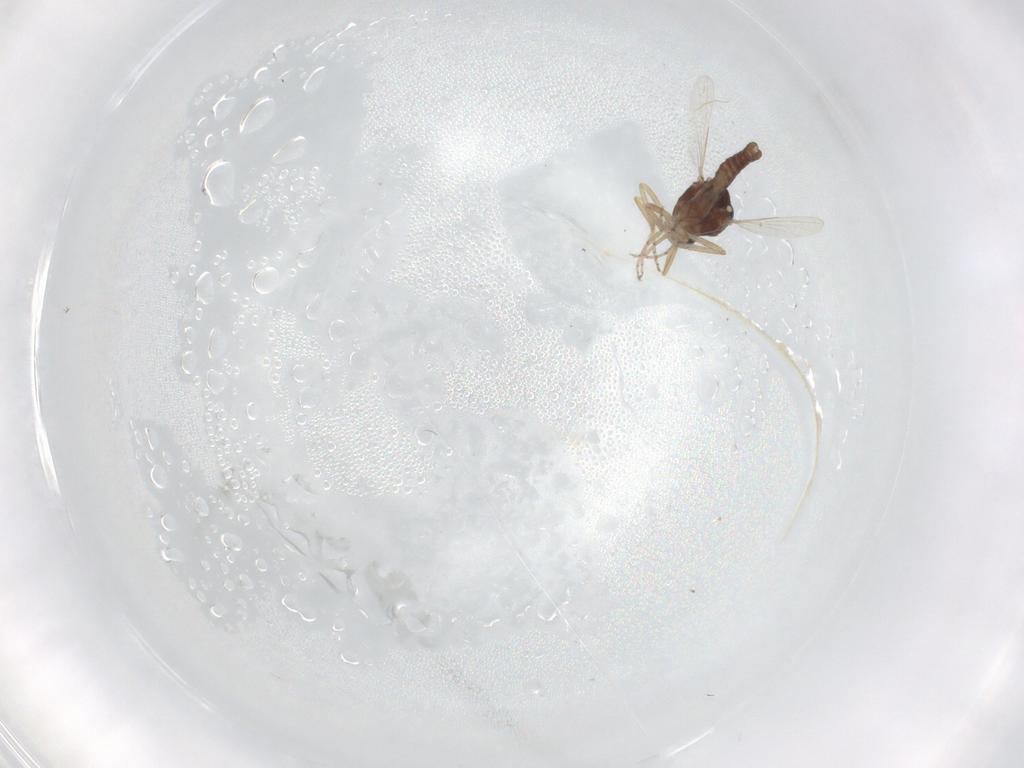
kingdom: Animalia
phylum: Arthropoda
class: Insecta
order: Diptera
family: Ceratopogonidae
